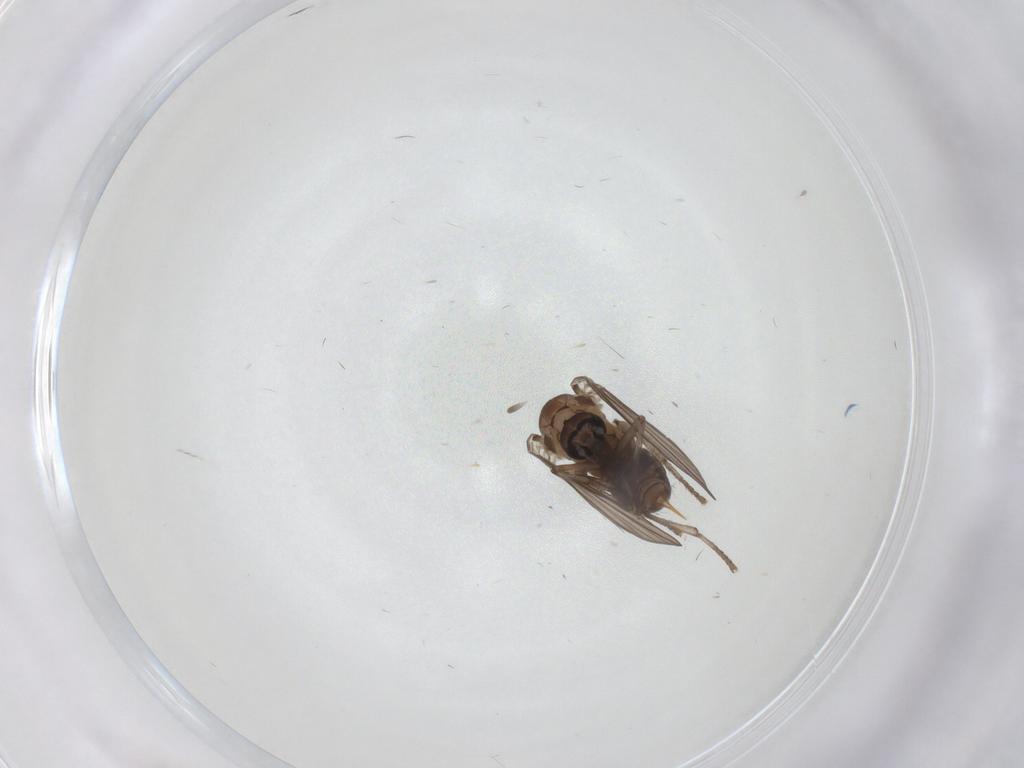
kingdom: Animalia
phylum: Arthropoda
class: Insecta
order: Diptera
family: Psychodidae
